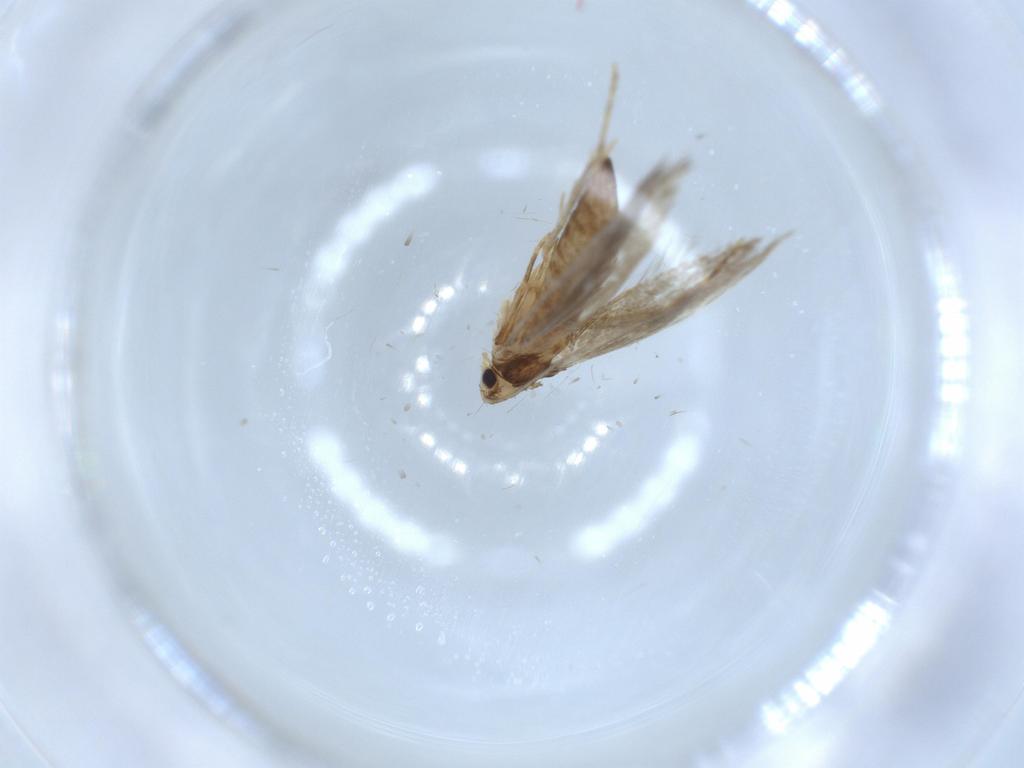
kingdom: Animalia
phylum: Arthropoda
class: Insecta
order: Lepidoptera
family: Tineidae
